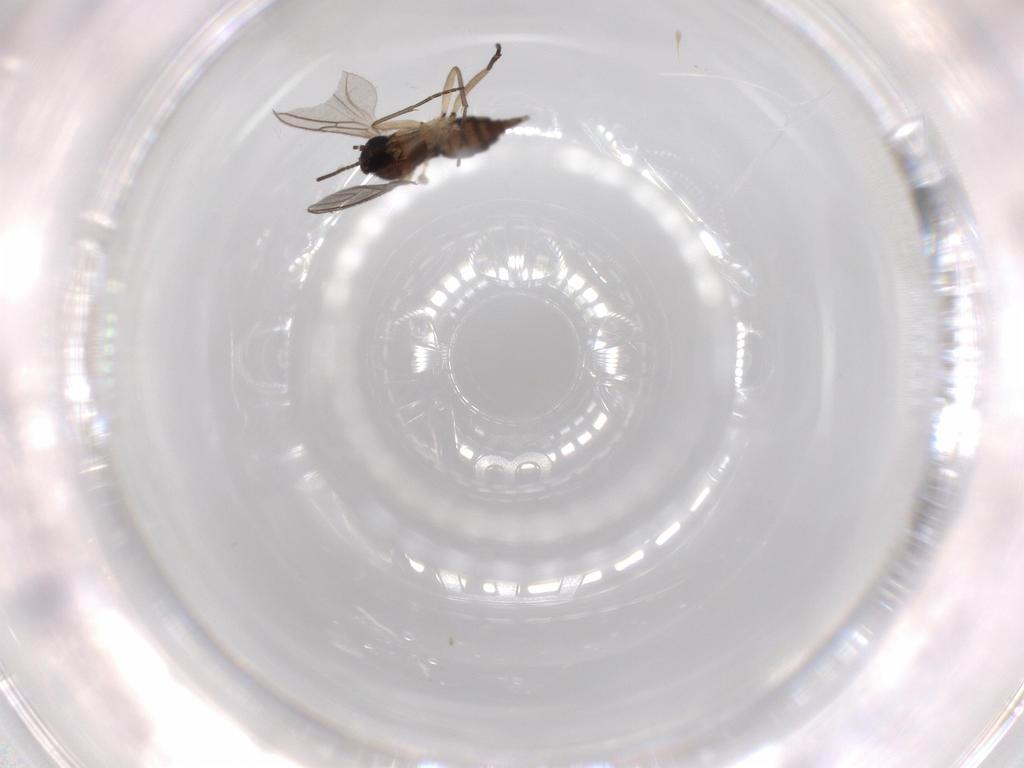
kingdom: Animalia
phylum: Arthropoda
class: Insecta
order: Diptera
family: Sciaridae
